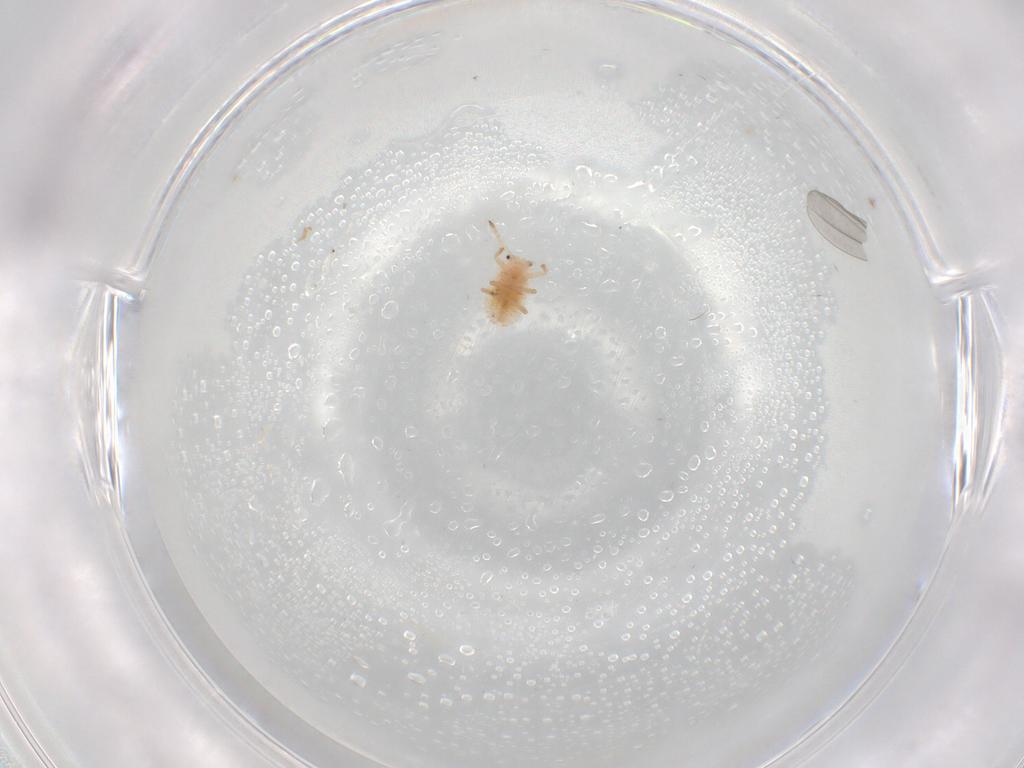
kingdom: Animalia
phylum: Arthropoda
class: Insecta
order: Hemiptera
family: Coccoidea_incertae_sedis
